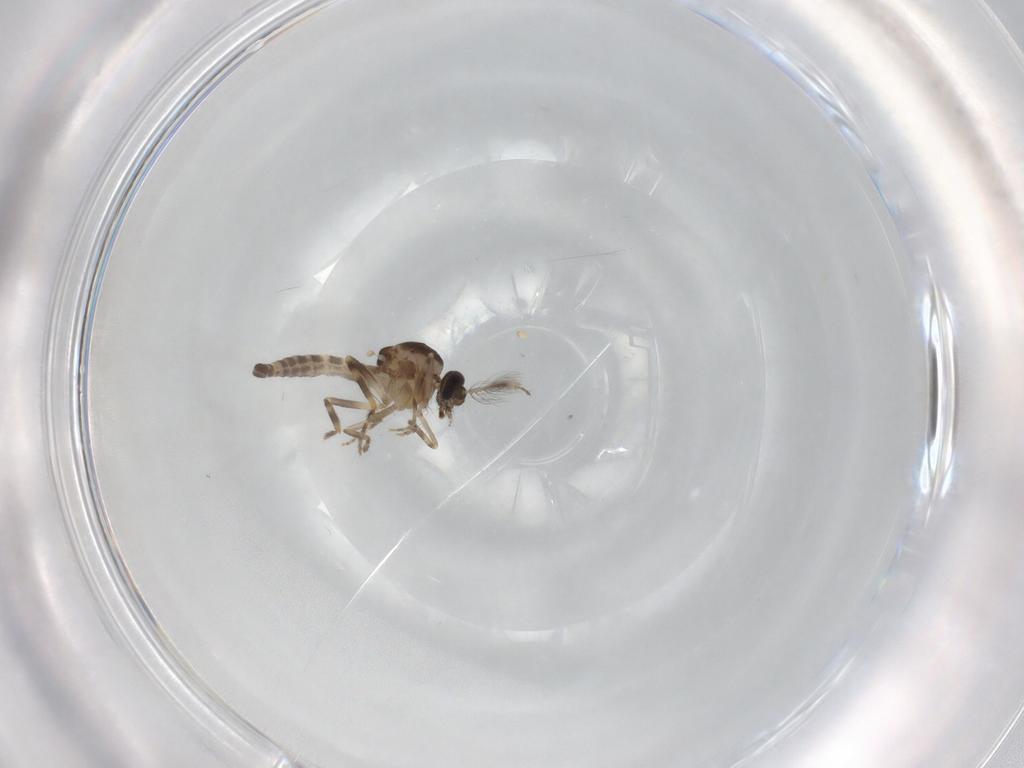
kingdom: Animalia
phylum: Arthropoda
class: Insecta
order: Diptera
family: Ceratopogonidae
